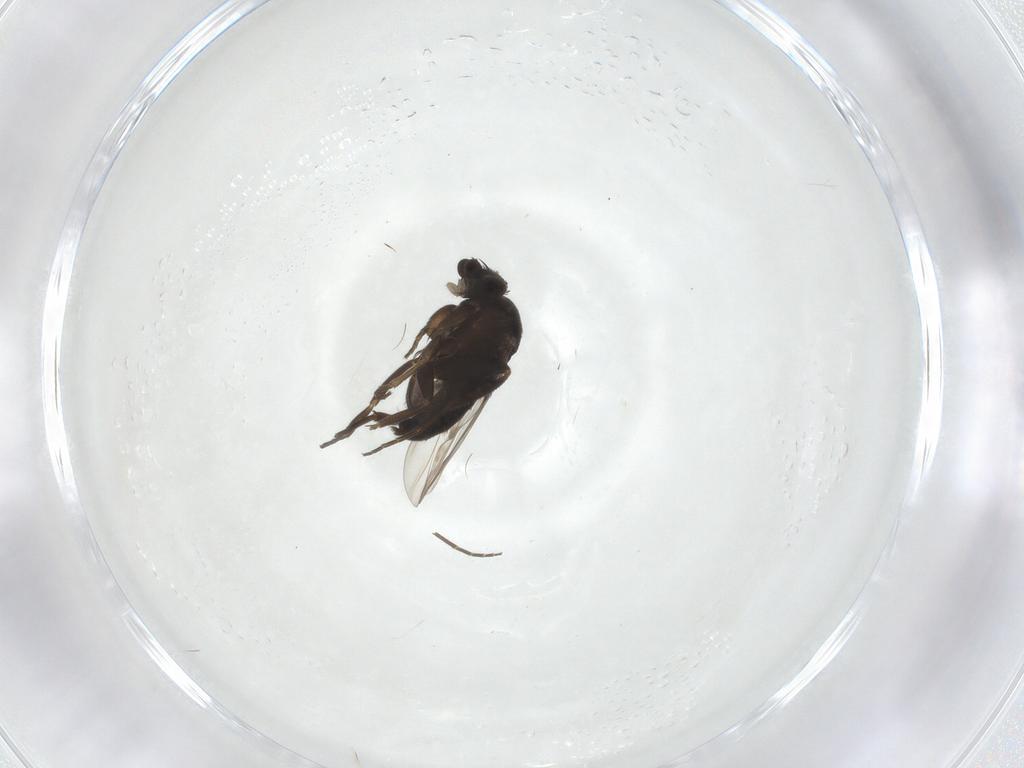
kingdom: Animalia
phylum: Arthropoda
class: Insecta
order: Diptera
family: Phoridae
